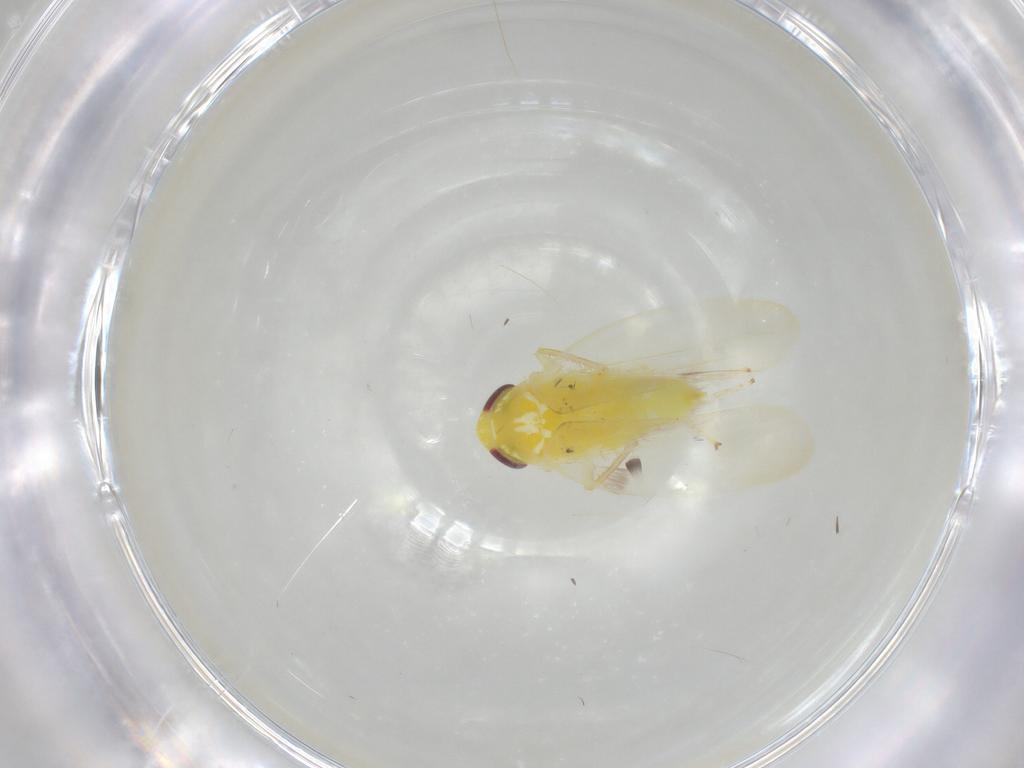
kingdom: Animalia
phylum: Arthropoda
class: Insecta
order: Hemiptera
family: Cicadellidae
